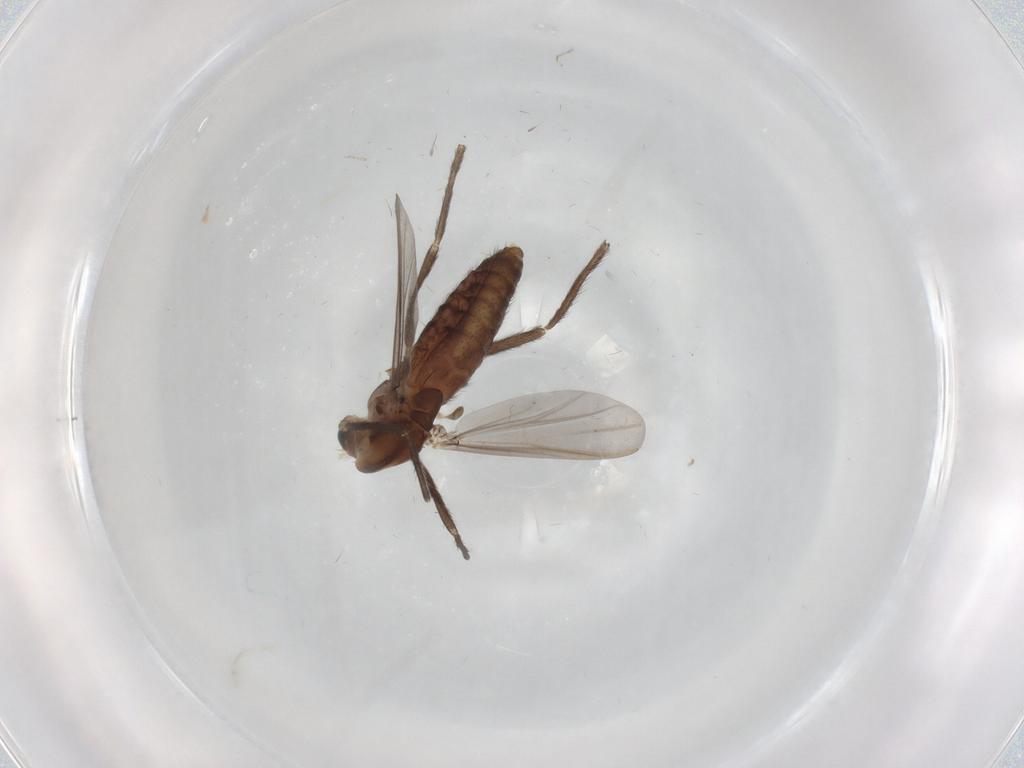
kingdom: Animalia
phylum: Arthropoda
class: Insecta
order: Diptera
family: Chironomidae
